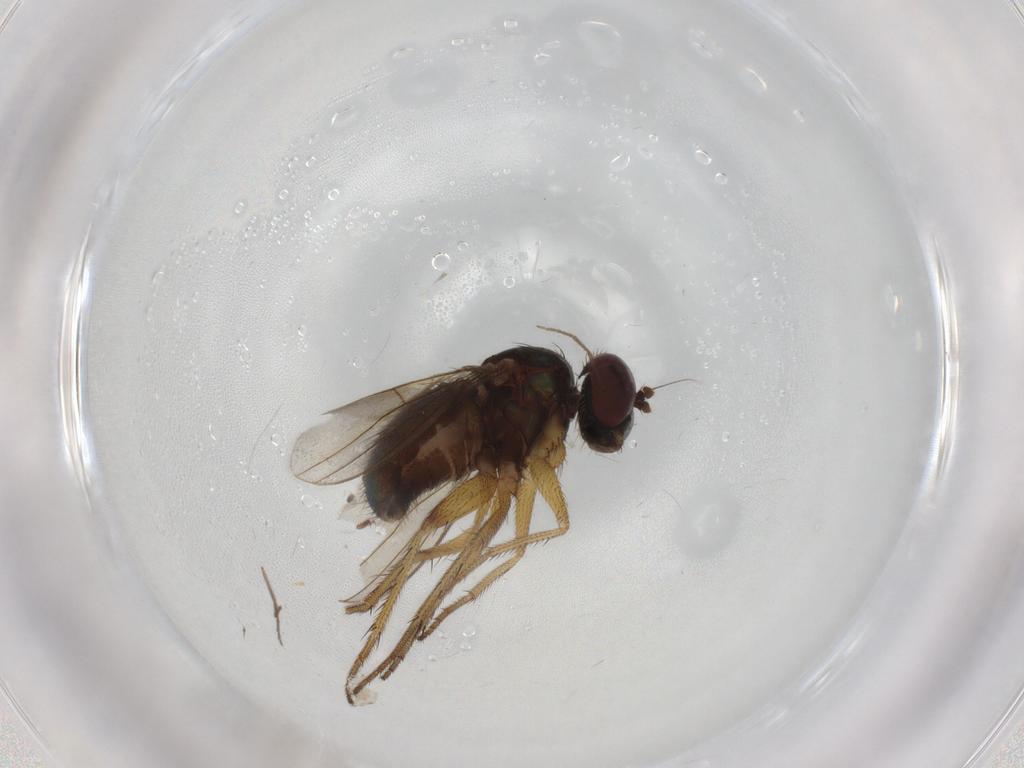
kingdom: Animalia
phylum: Arthropoda
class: Insecta
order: Diptera
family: Dolichopodidae
